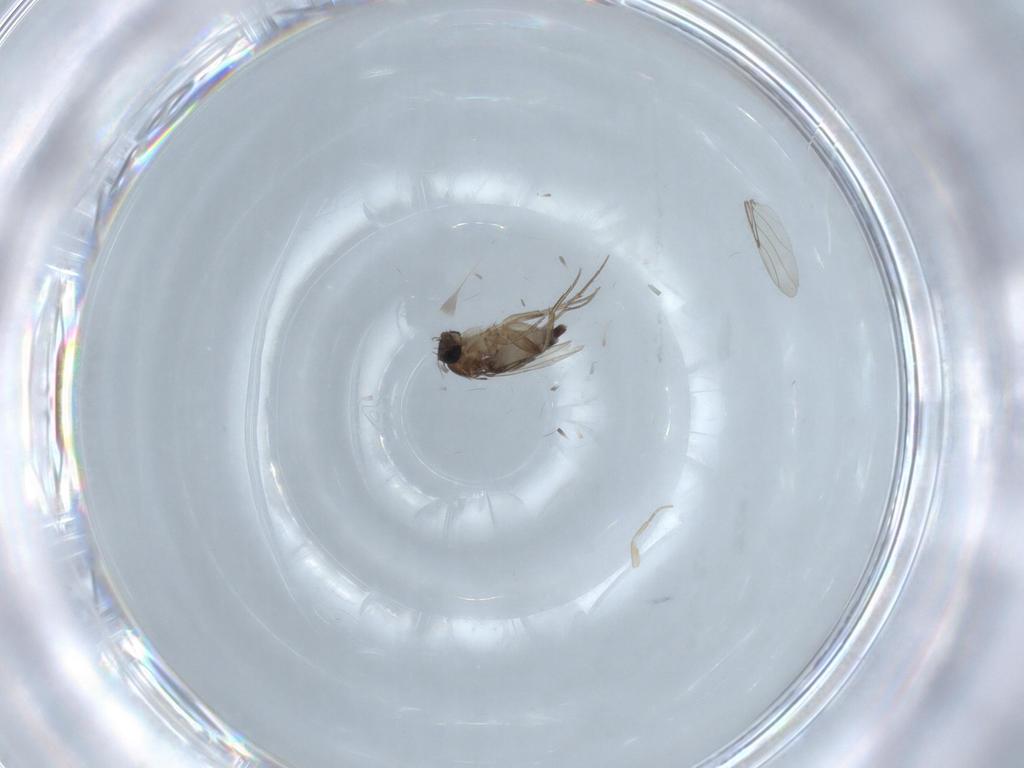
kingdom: Animalia
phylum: Arthropoda
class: Insecta
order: Diptera
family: Phoridae
